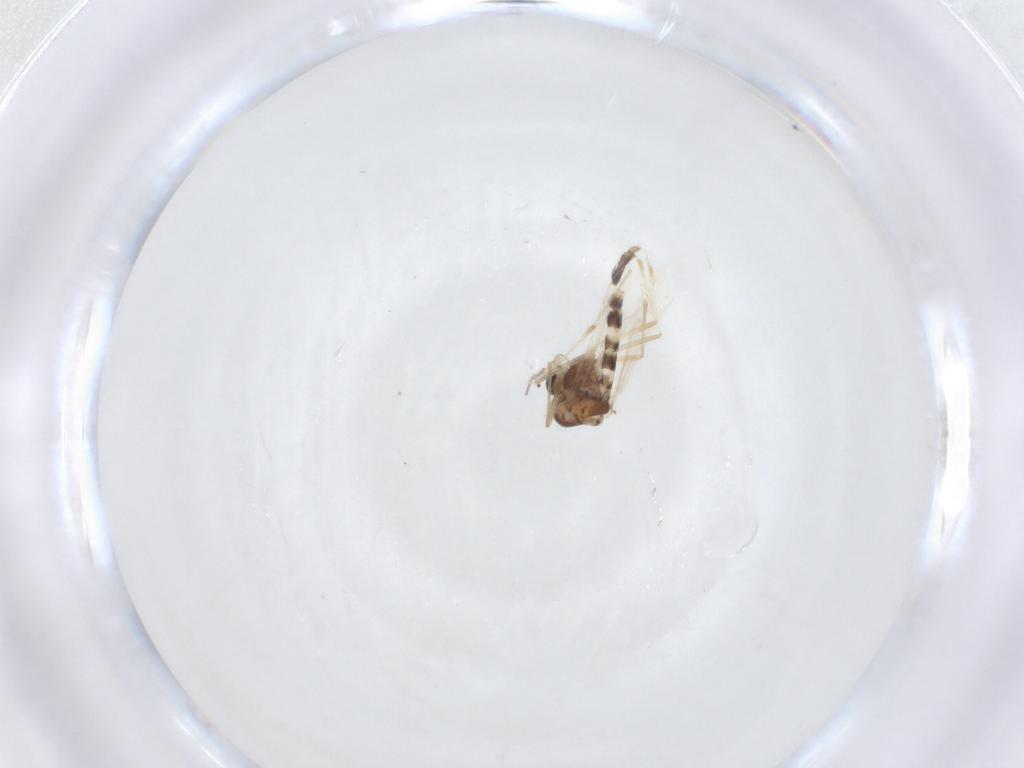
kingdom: Animalia
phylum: Arthropoda
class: Insecta
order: Diptera
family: Chironomidae
